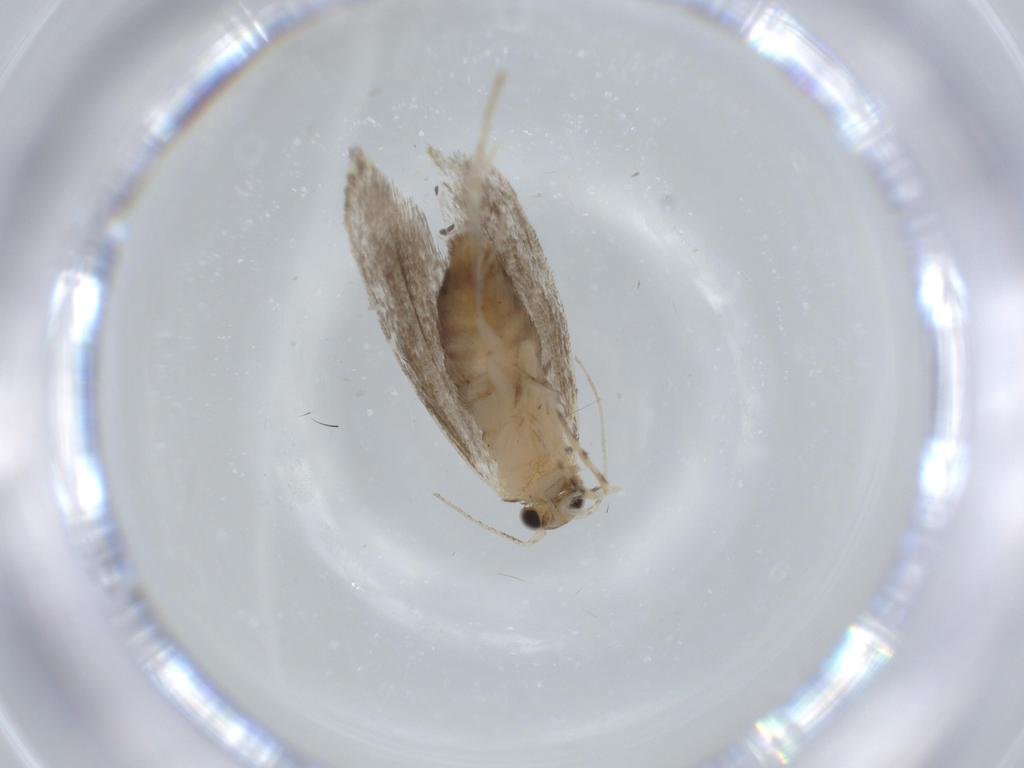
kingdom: Animalia
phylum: Arthropoda
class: Insecta
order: Lepidoptera
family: Tineidae
